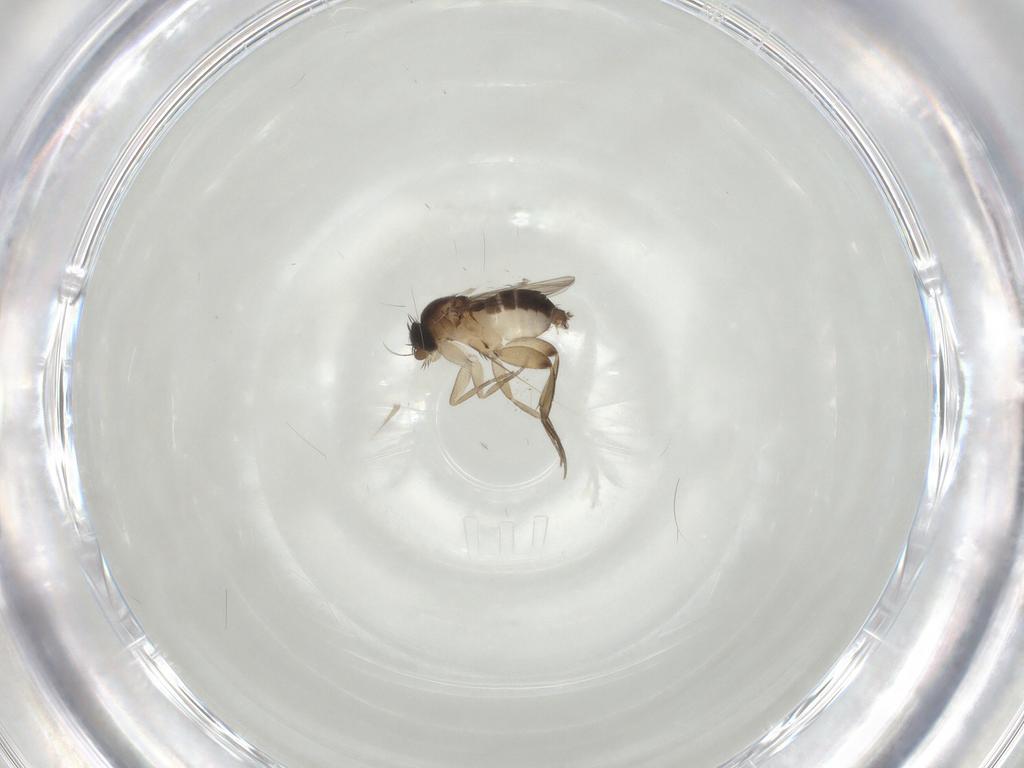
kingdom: Animalia
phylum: Arthropoda
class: Insecta
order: Diptera
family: Phoridae
